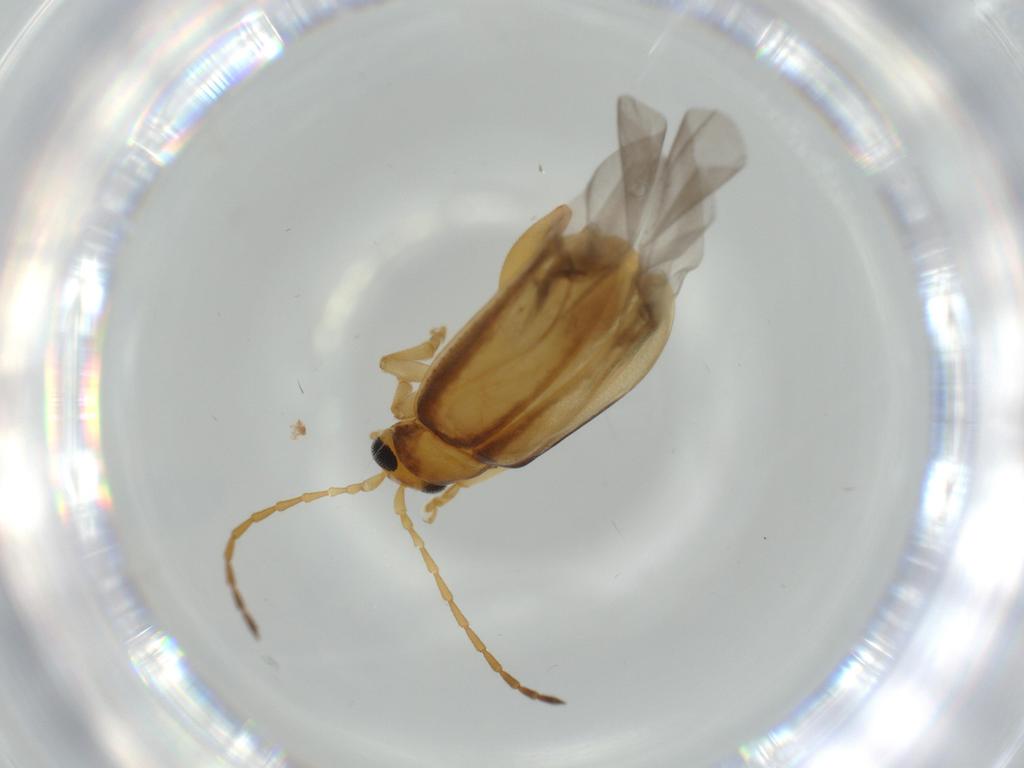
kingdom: Animalia
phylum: Arthropoda
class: Insecta
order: Coleoptera
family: Chrysomelidae
